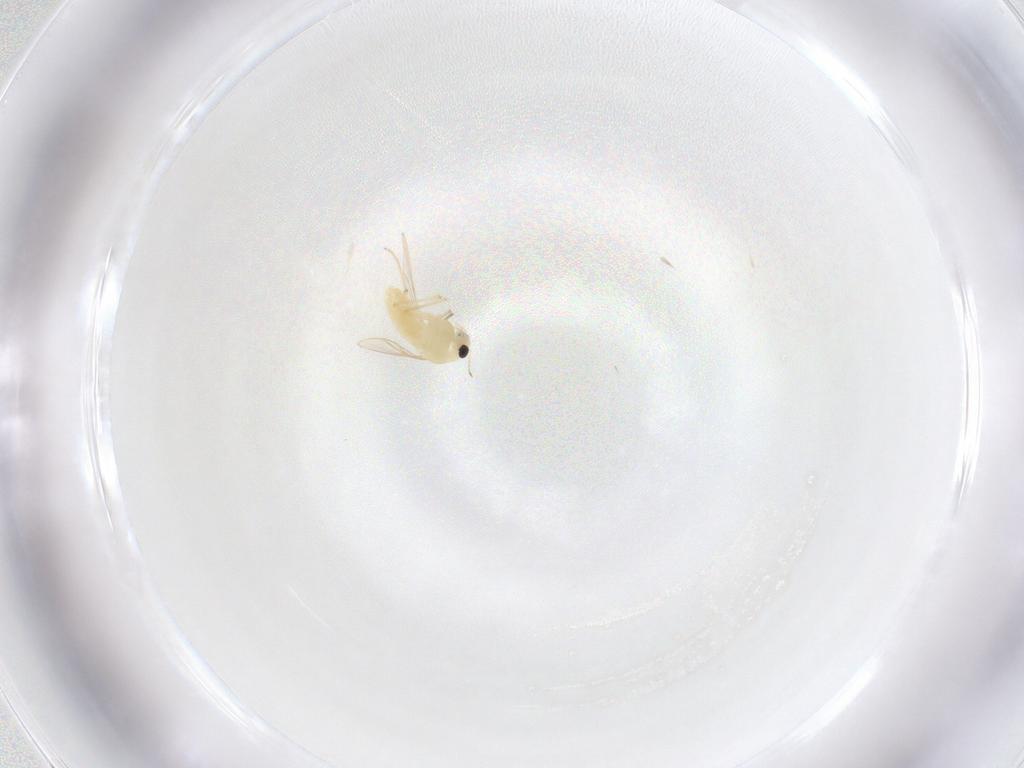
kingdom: Animalia
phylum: Arthropoda
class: Insecta
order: Diptera
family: Chironomidae
